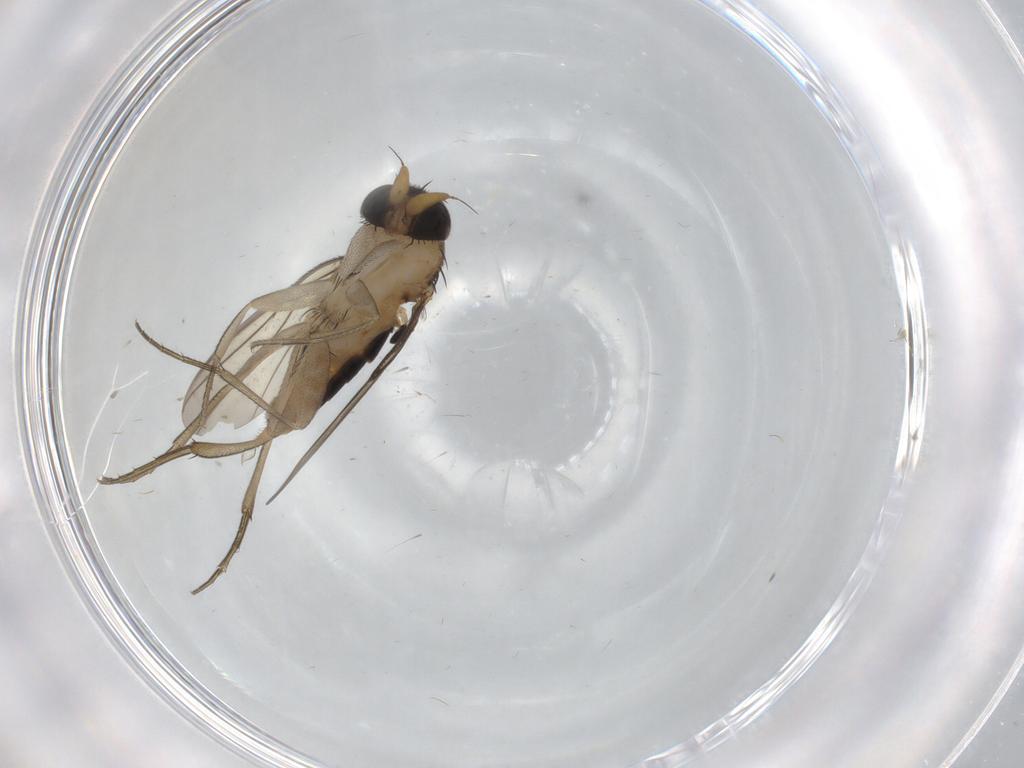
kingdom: Animalia
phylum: Arthropoda
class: Insecta
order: Diptera
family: Phoridae
